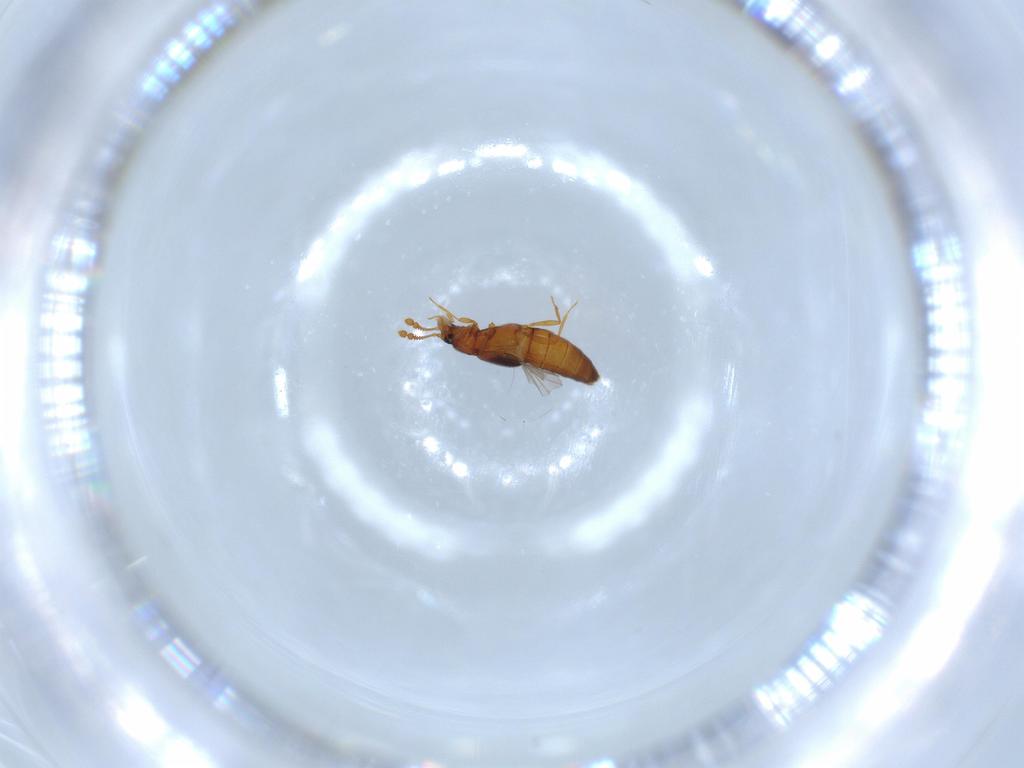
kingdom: Animalia
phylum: Arthropoda
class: Insecta
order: Coleoptera
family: Staphylinidae
